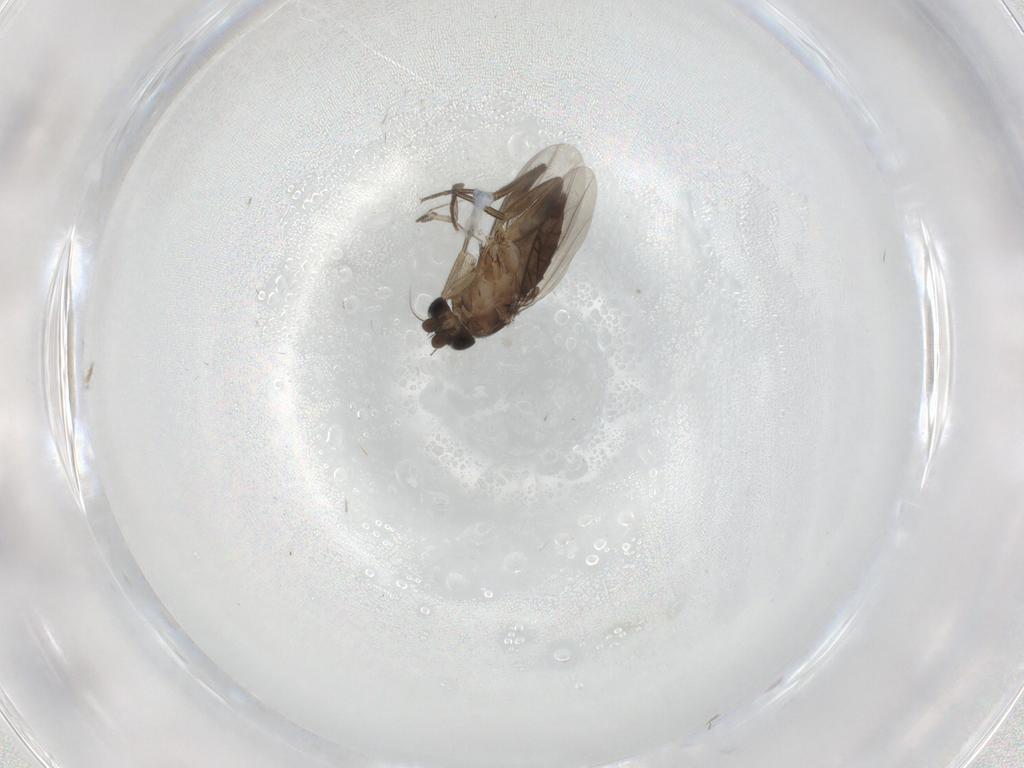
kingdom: Animalia
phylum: Arthropoda
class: Insecta
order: Diptera
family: Phoridae
